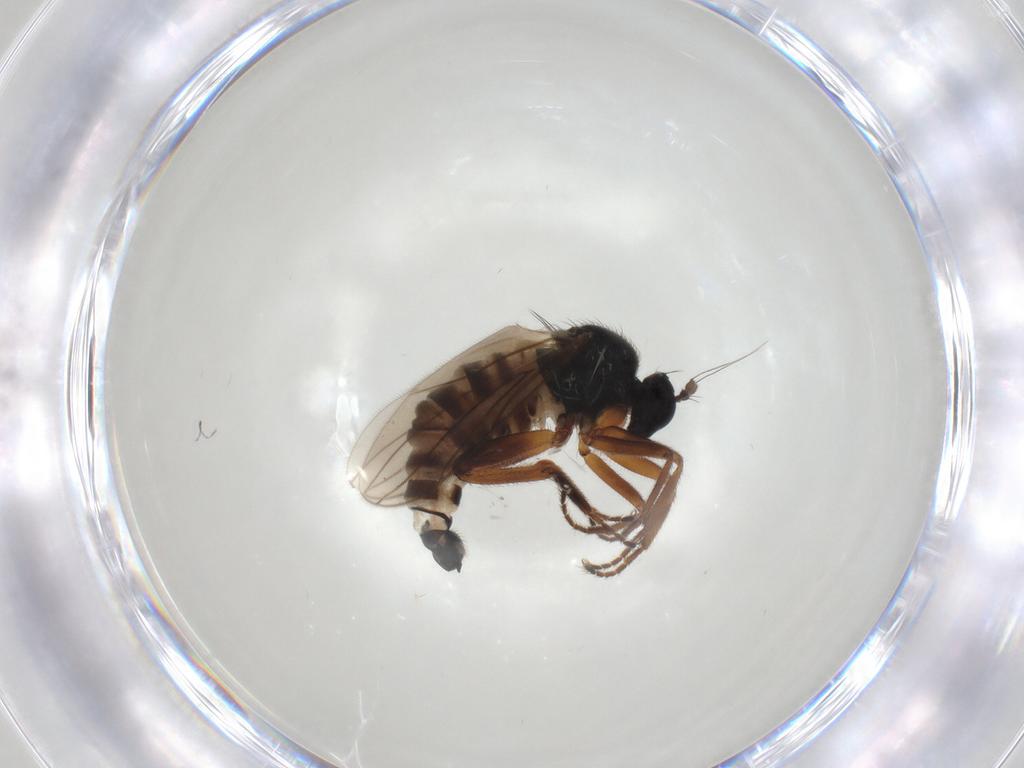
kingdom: Animalia
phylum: Arthropoda
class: Insecta
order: Diptera
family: Hybotidae
